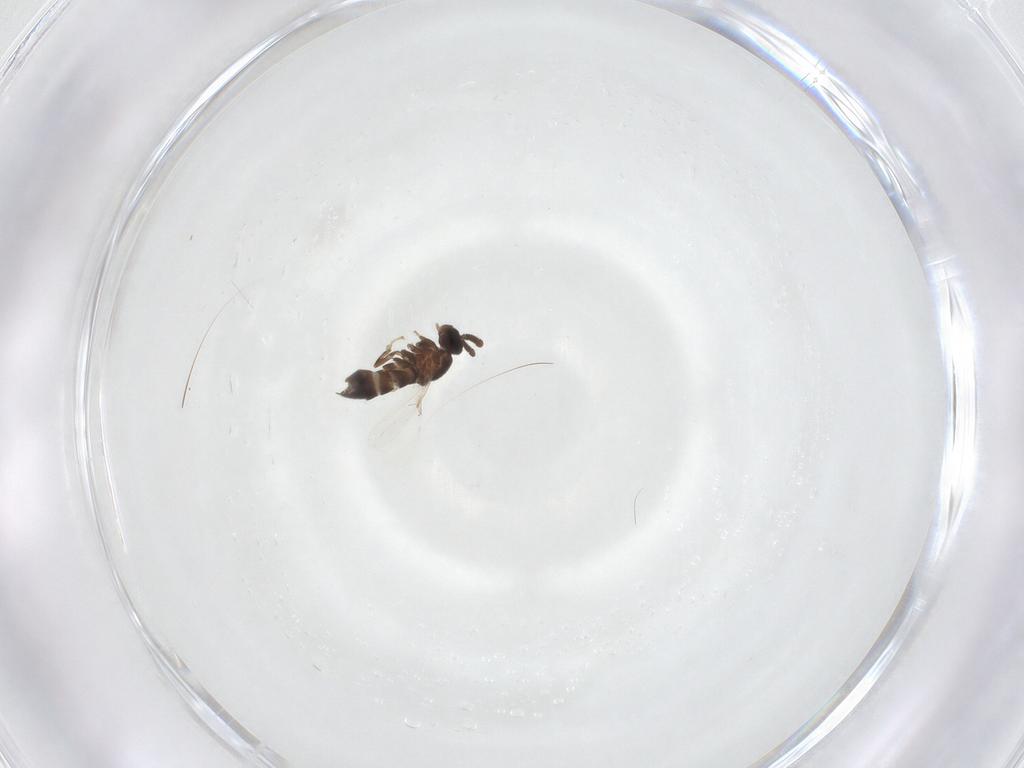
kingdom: Animalia
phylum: Arthropoda
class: Insecta
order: Diptera
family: Scatopsidae
